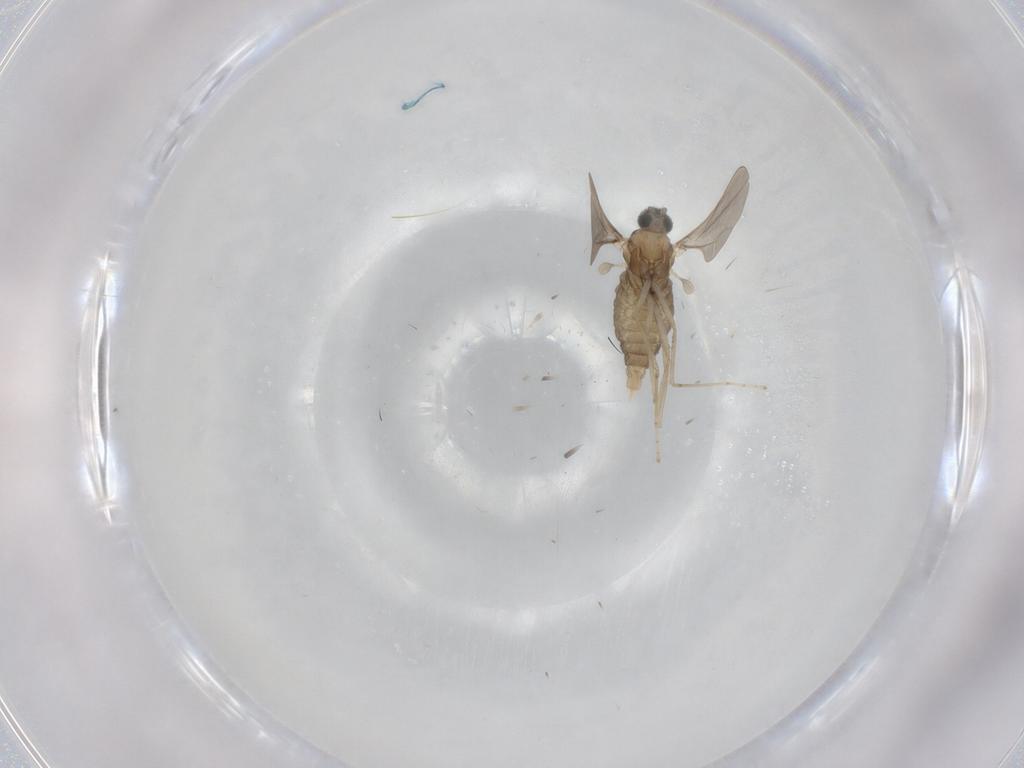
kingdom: Animalia
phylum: Arthropoda
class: Insecta
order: Diptera
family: Cecidomyiidae
